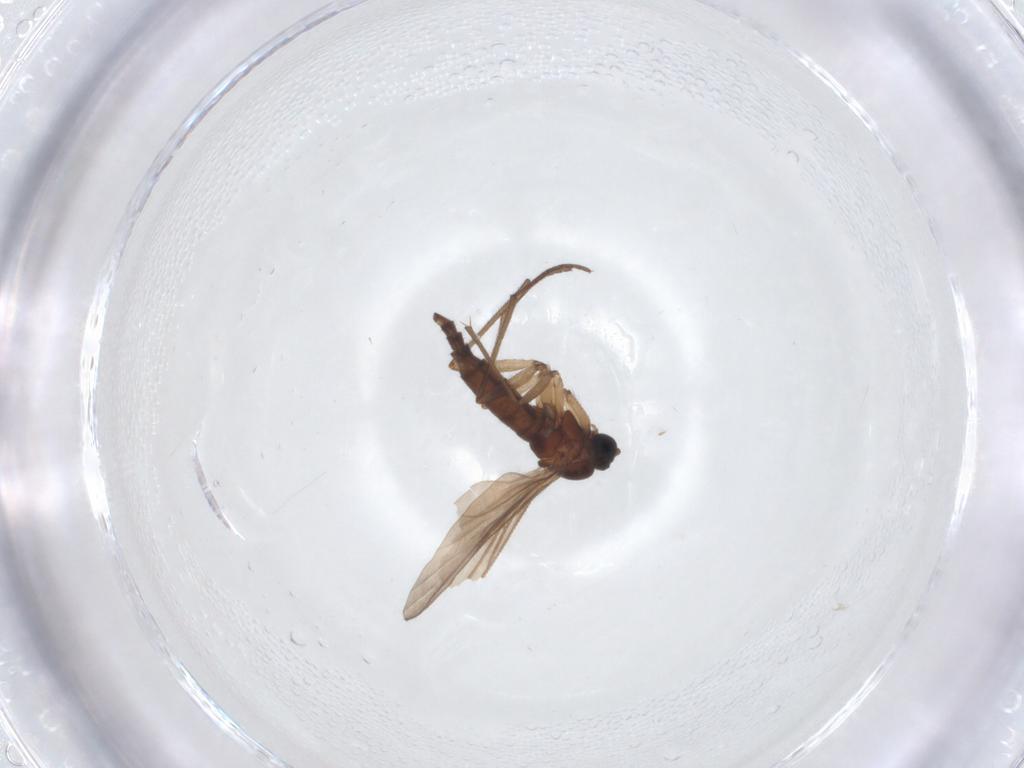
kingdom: Animalia
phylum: Arthropoda
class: Insecta
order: Diptera
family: Sciaridae
